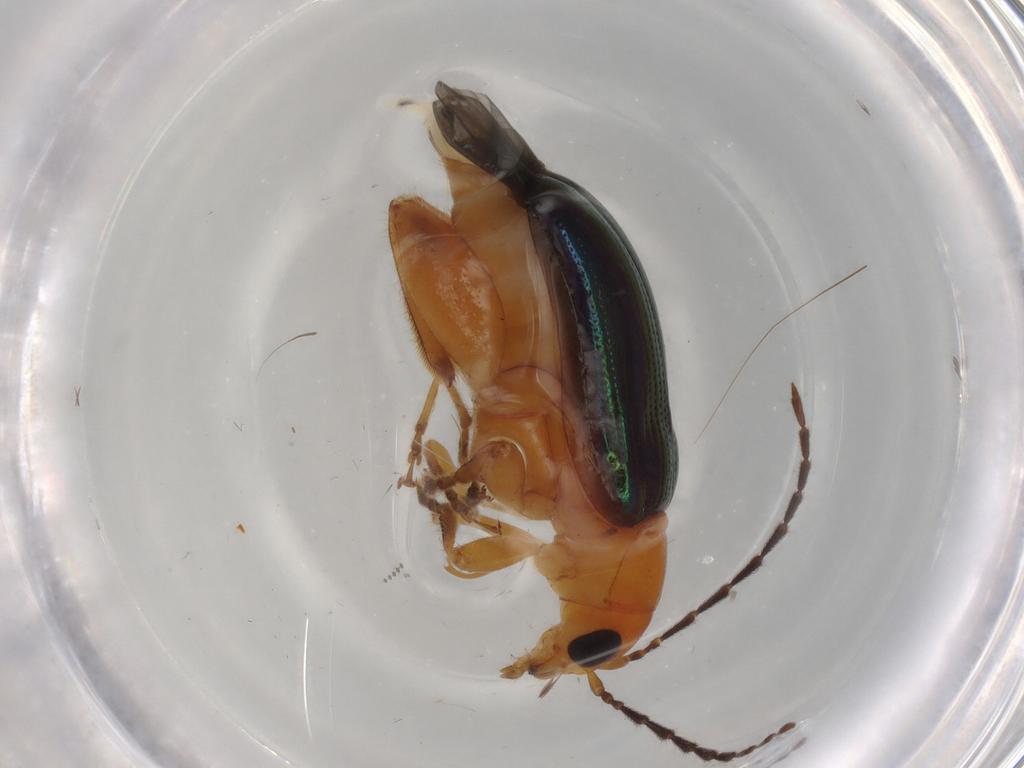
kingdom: Animalia
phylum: Arthropoda
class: Insecta
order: Coleoptera
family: Chrysomelidae
